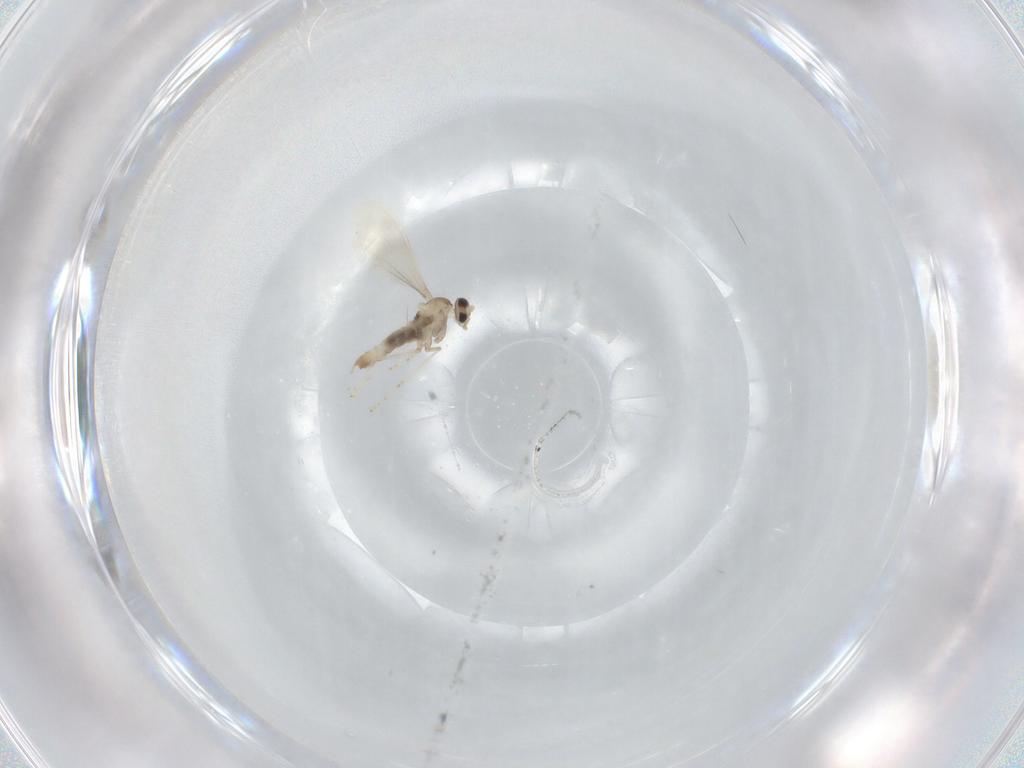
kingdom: Animalia
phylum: Arthropoda
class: Insecta
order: Diptera
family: Cecidomyiidae
